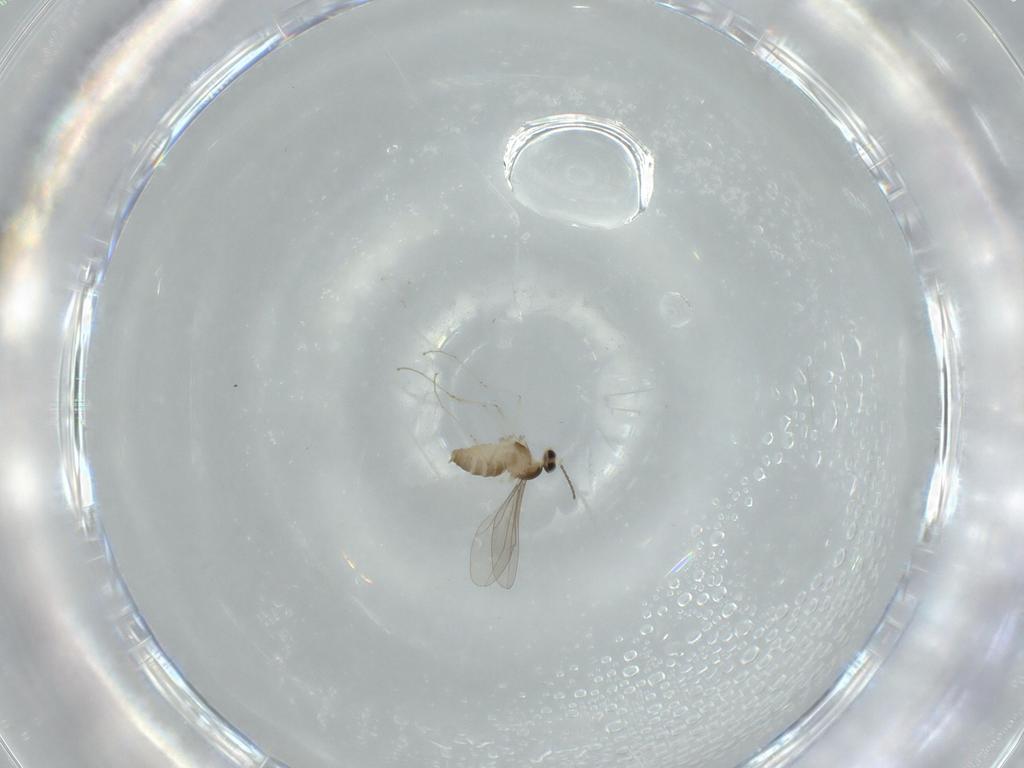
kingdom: Animalia
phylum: Arthropoda
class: Insecta
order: Diptera
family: Cecidomyiidae
